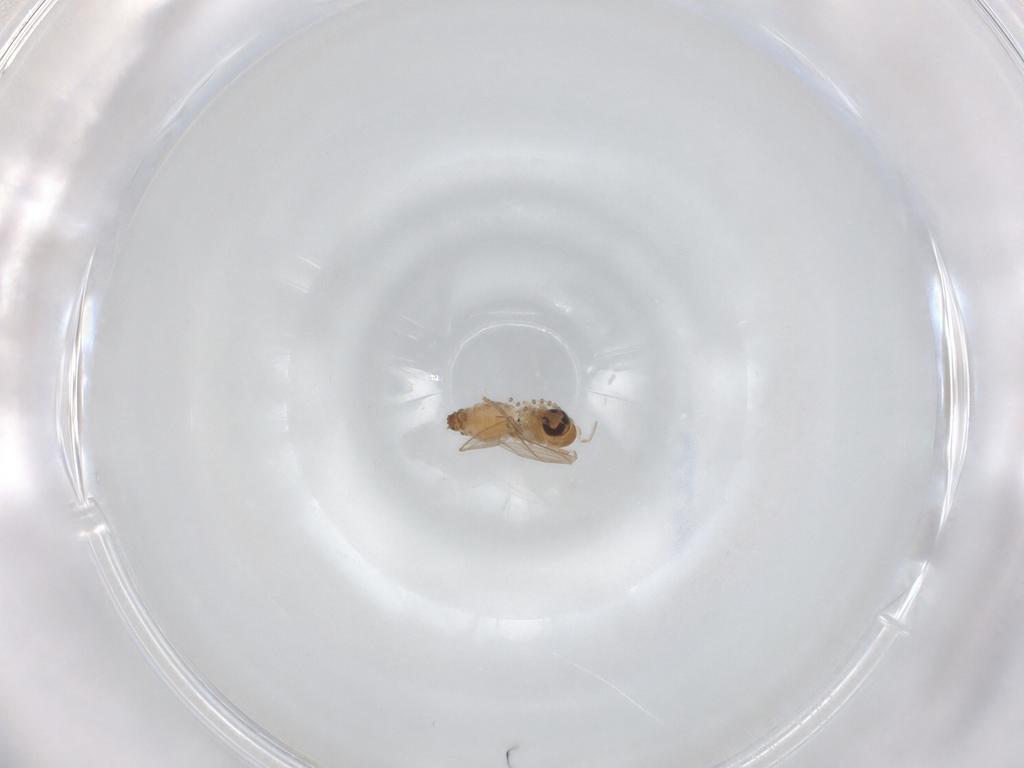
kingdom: Animalia
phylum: Arthropoda
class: Insecta
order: Diptera
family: Psychodidae
